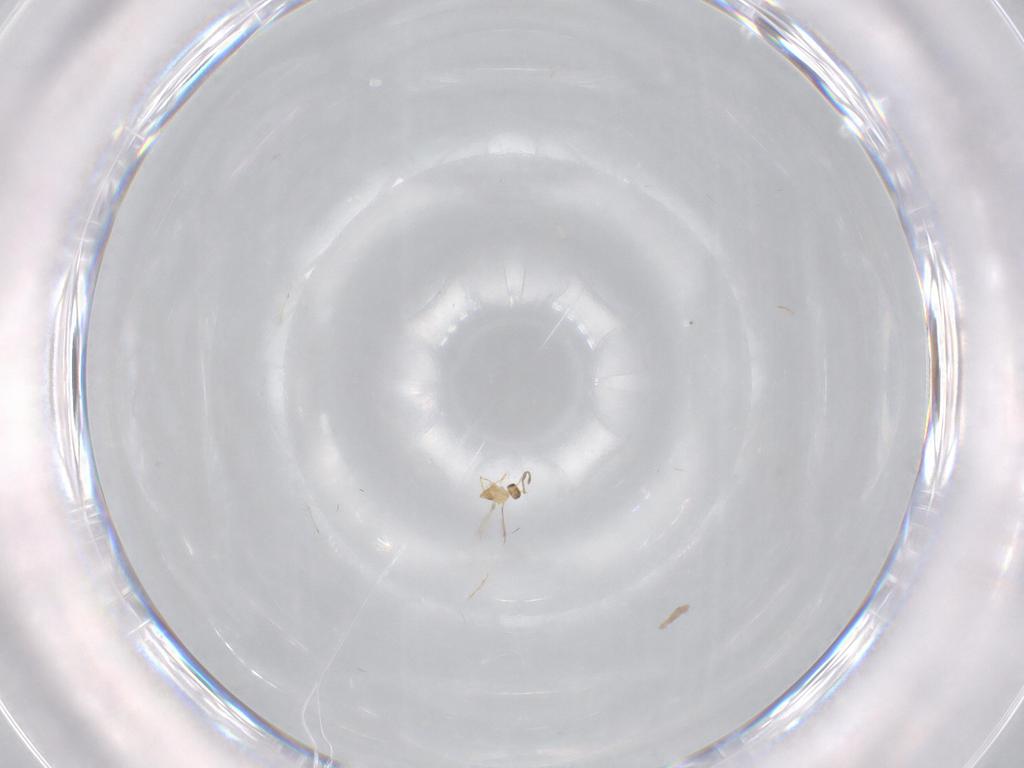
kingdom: Animalia
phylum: Arthropoda
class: Insecta
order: Hymenoptera
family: Mymaridae
